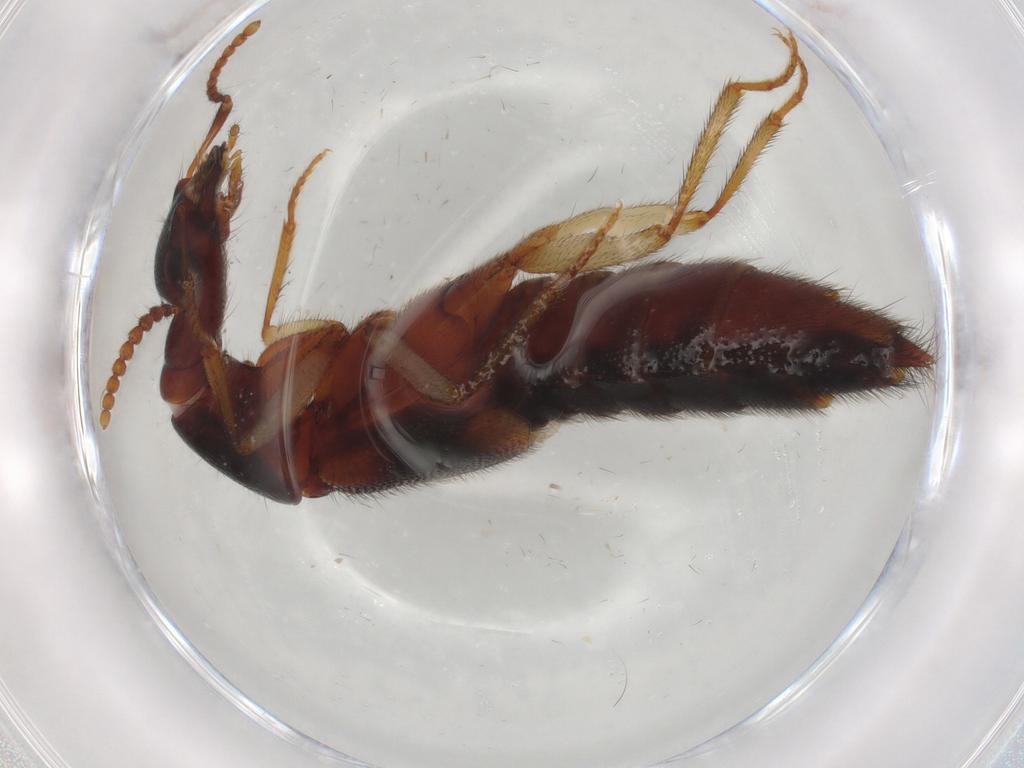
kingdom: Animalia
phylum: Arthropoda
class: Insecta
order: Coleoptera
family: Staphylinidae
